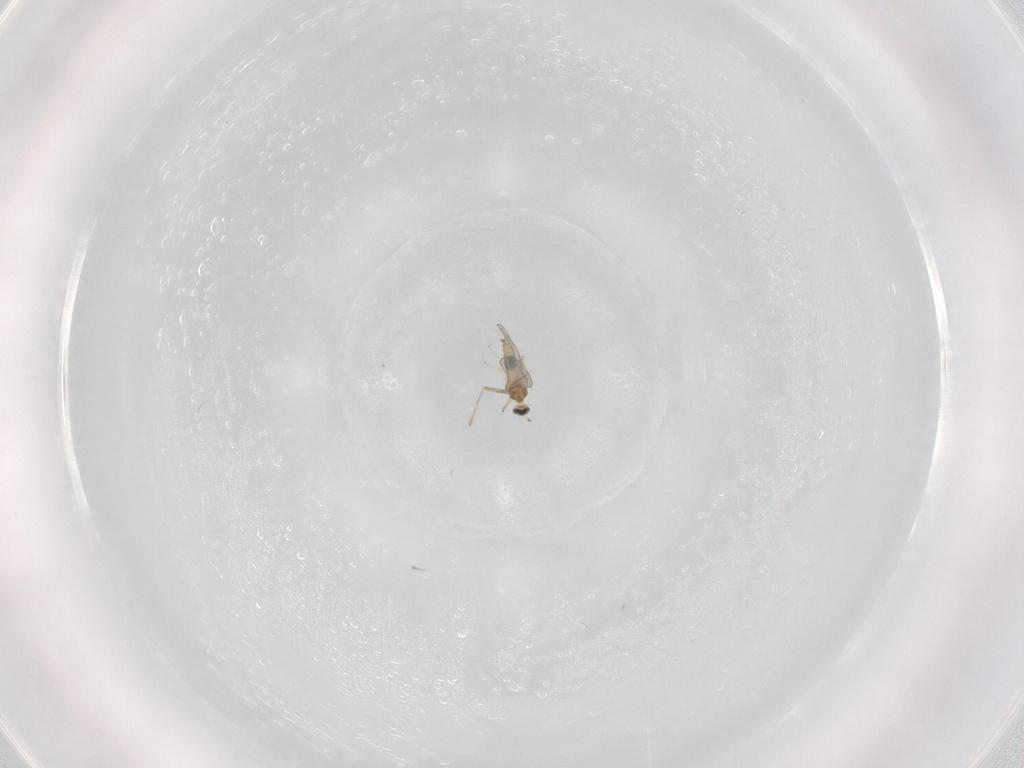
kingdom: Animalia
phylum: Arthropoda
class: Insecta
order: Diptera
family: Cecidomyiidae
